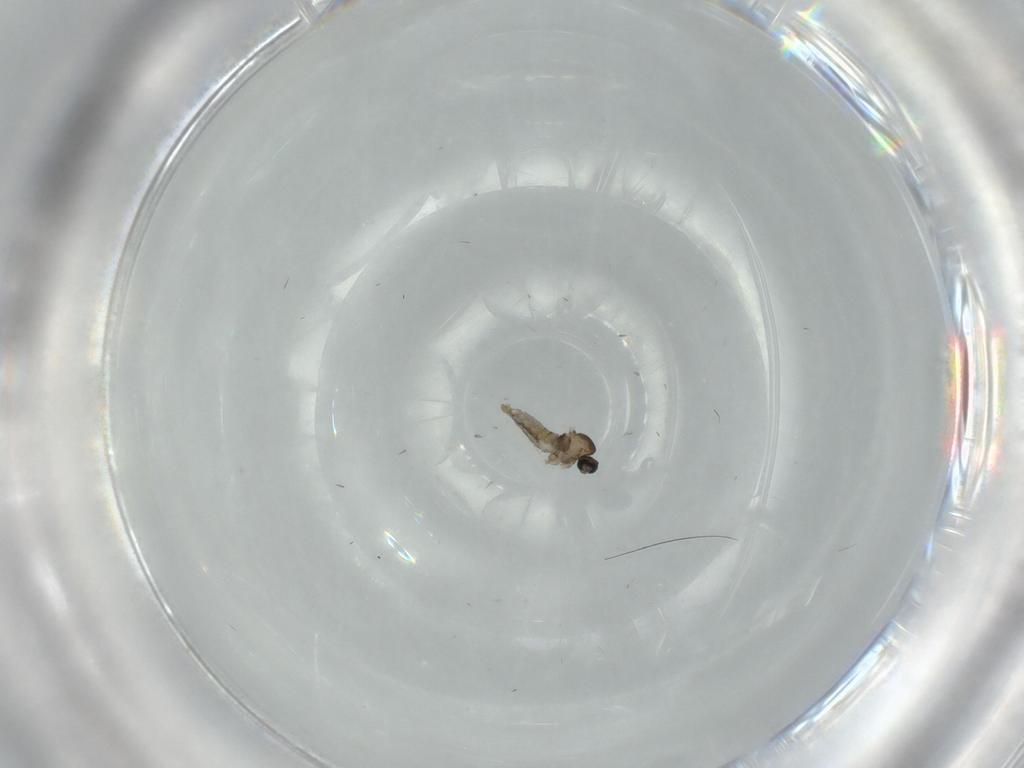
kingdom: Animalia
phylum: Arthropoda
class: Insecta
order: Diptera
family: Cecidomyiidae
